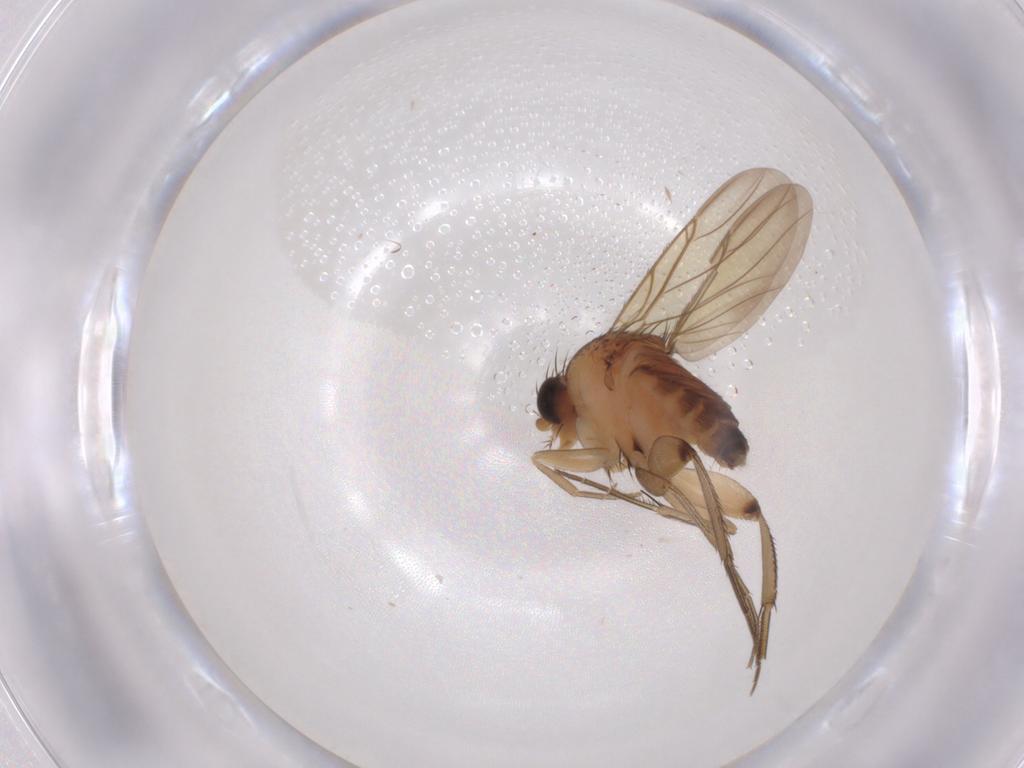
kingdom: Animalia
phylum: Arthropoda
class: Insecta
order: Diptera
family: Phoridae
